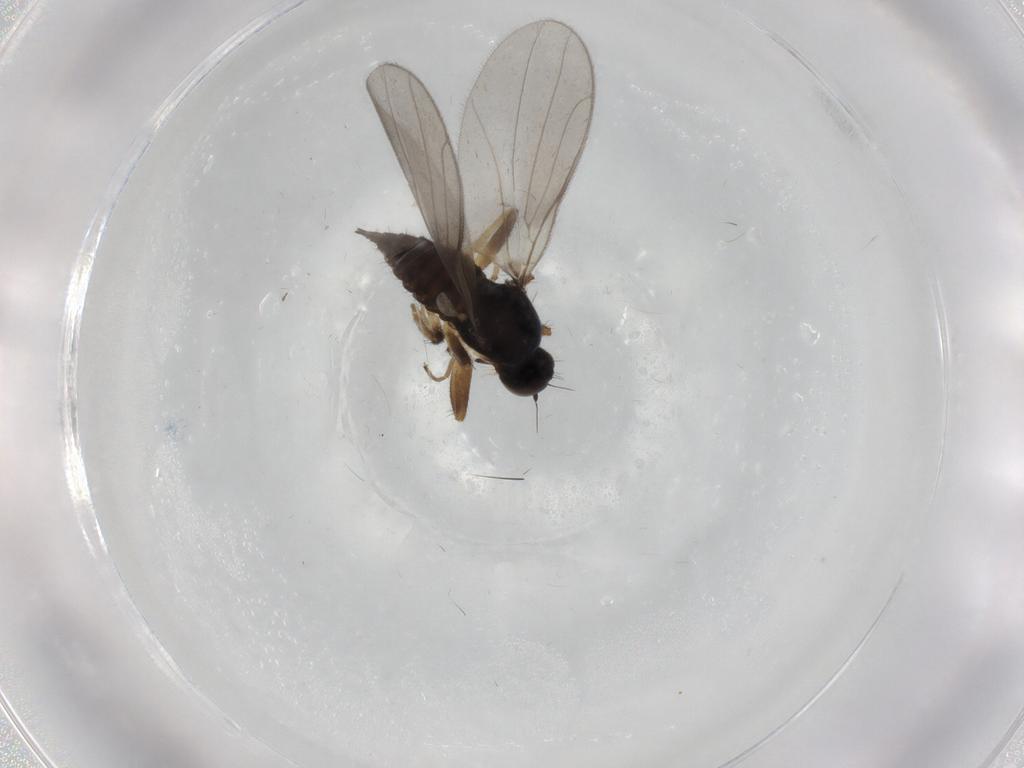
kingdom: Animalia
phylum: Arthropoda
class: Insecta
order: Diptera
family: Hybotidae
